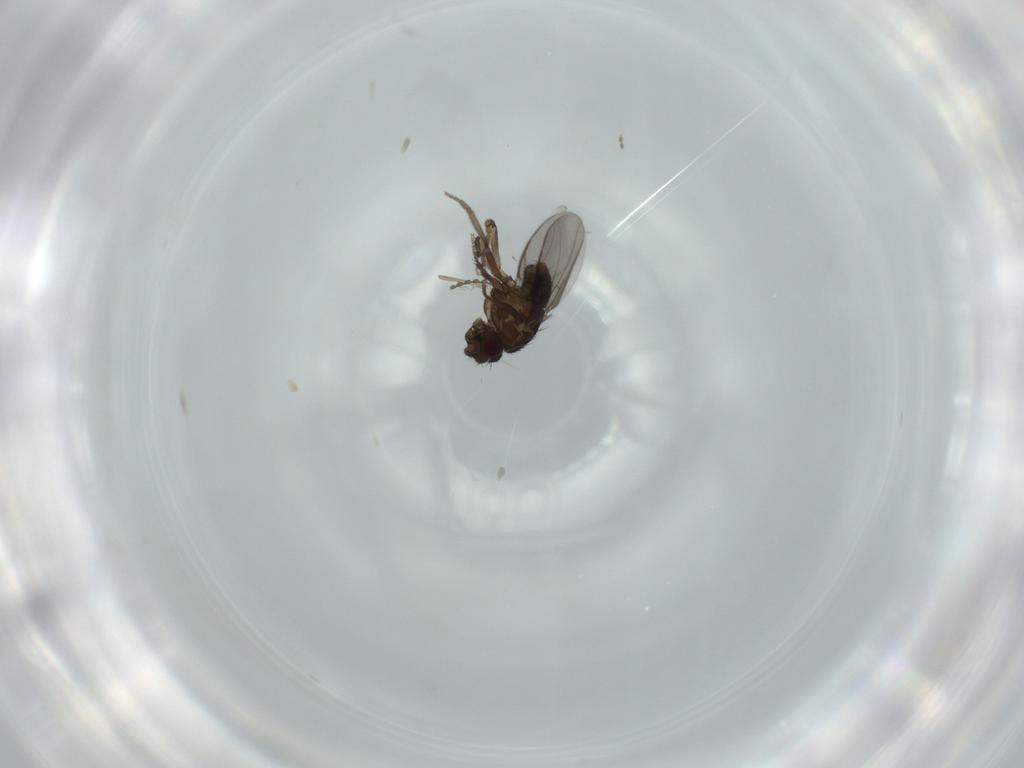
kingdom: Animalia
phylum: Arthropoda
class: Insecta
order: Diptera
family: Sphaeroceridae
